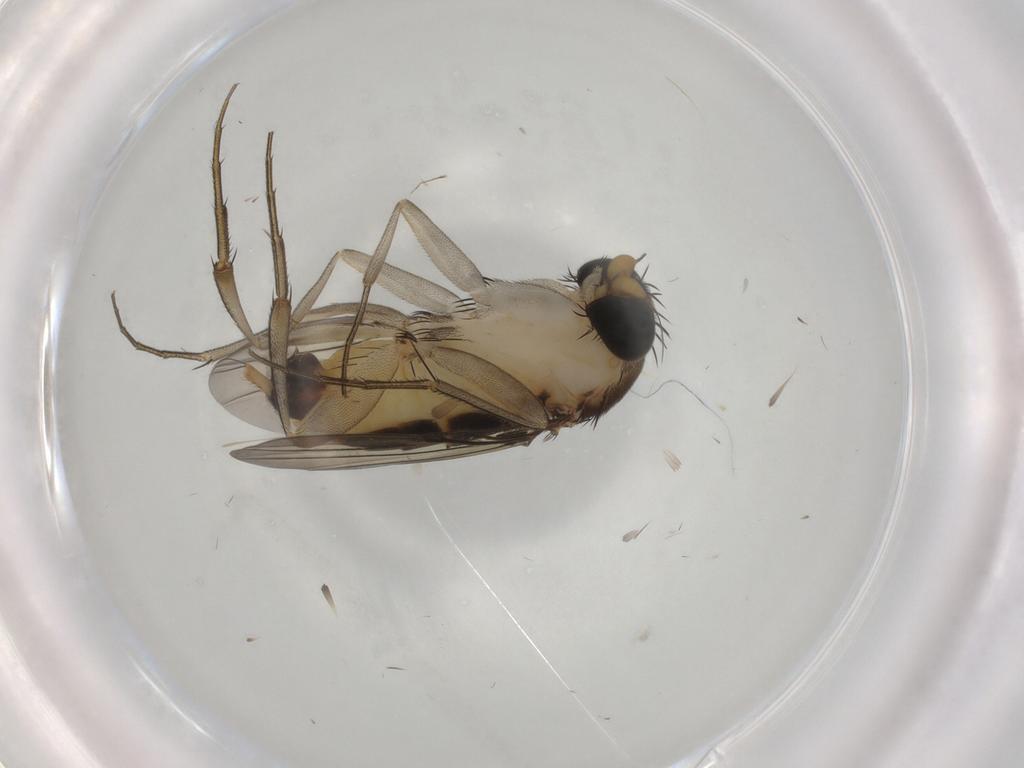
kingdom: Animalia
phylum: Arthropoda
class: Insecta
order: Diptera
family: Phoridae
